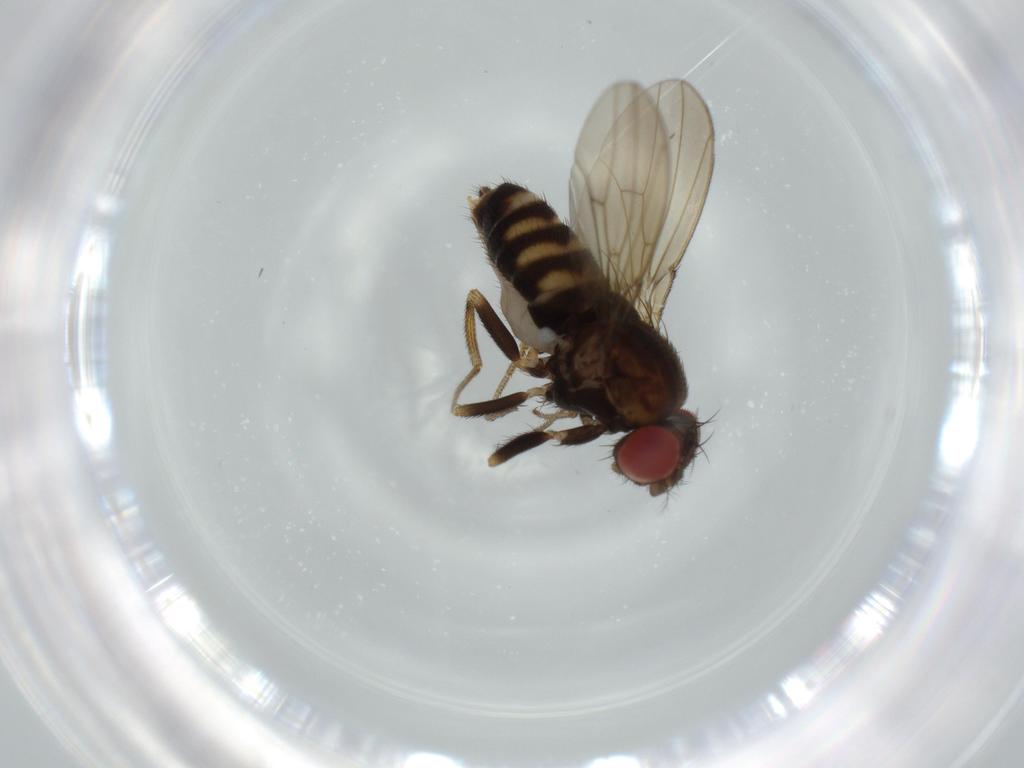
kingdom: Animalia
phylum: Arthropoda
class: Insecta
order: Diptera
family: Drosophilidae
